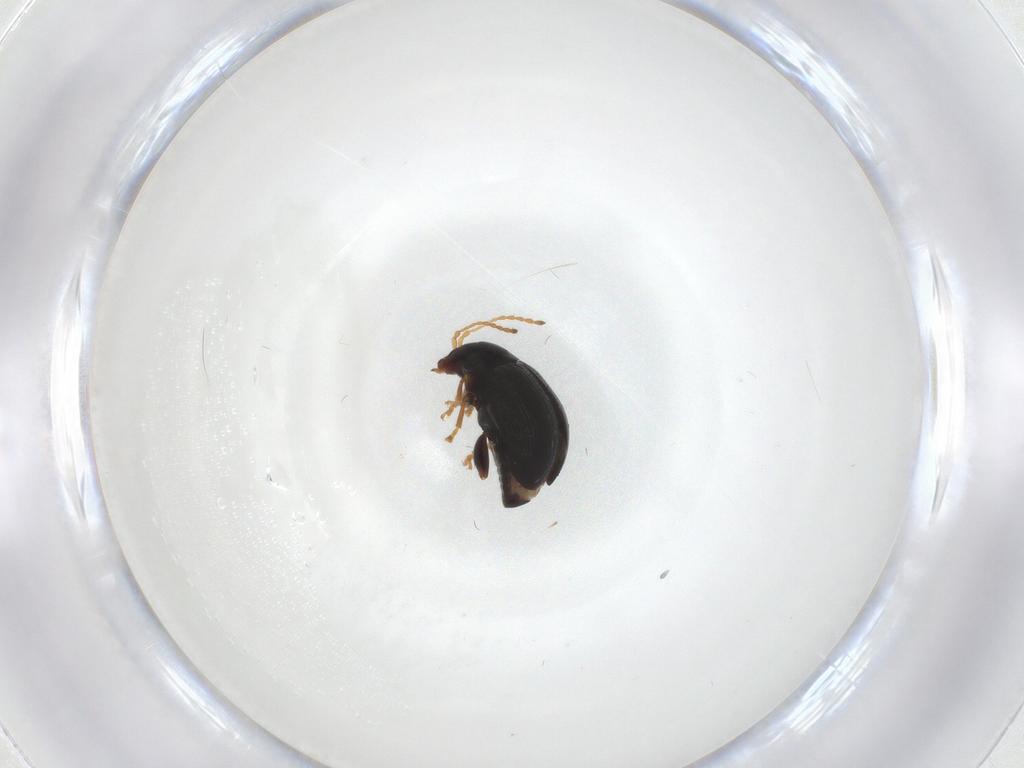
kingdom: Animalia
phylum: Arthropoda
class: Insecta
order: Coleoptera
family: Chrysomelidae
